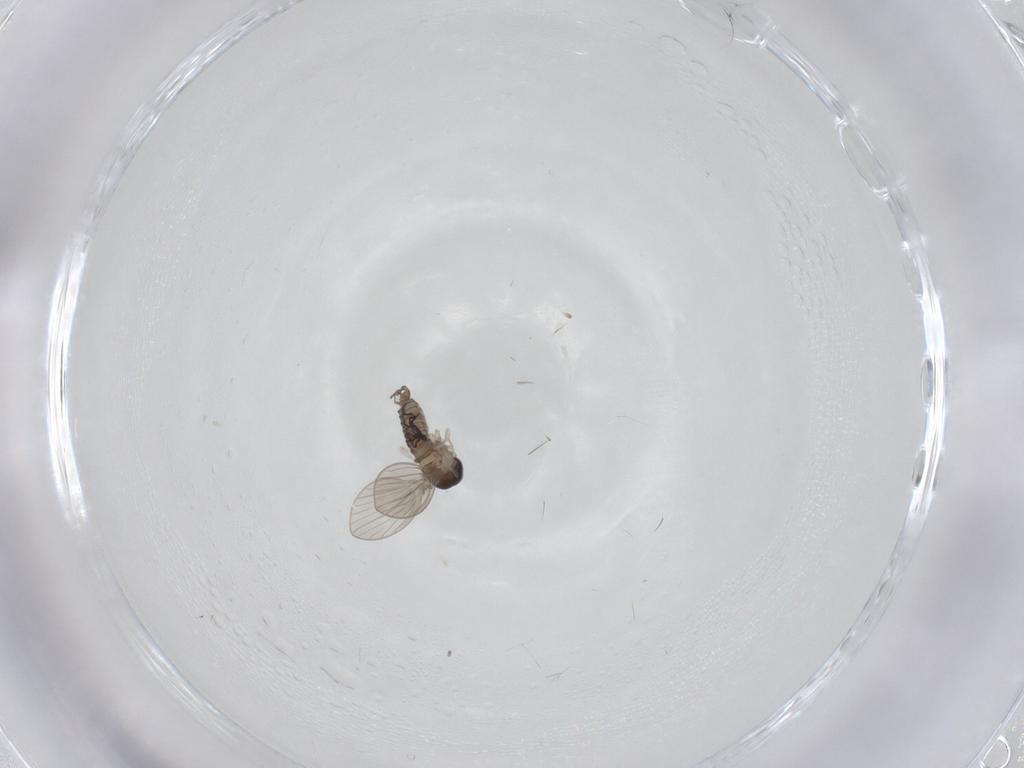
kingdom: Animalia
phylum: Arthropoda
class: Insecta
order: Diptera
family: Psychodidae
